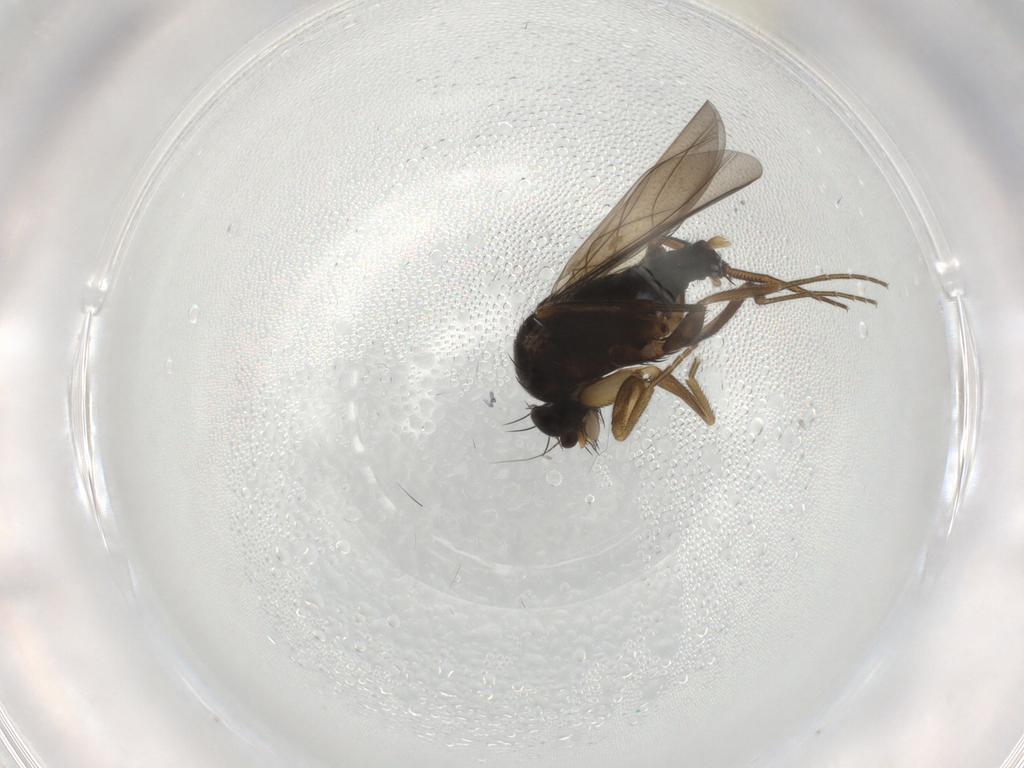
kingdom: Animalia
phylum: Arthropoda
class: Insecta
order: Diptera
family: Phoridae
